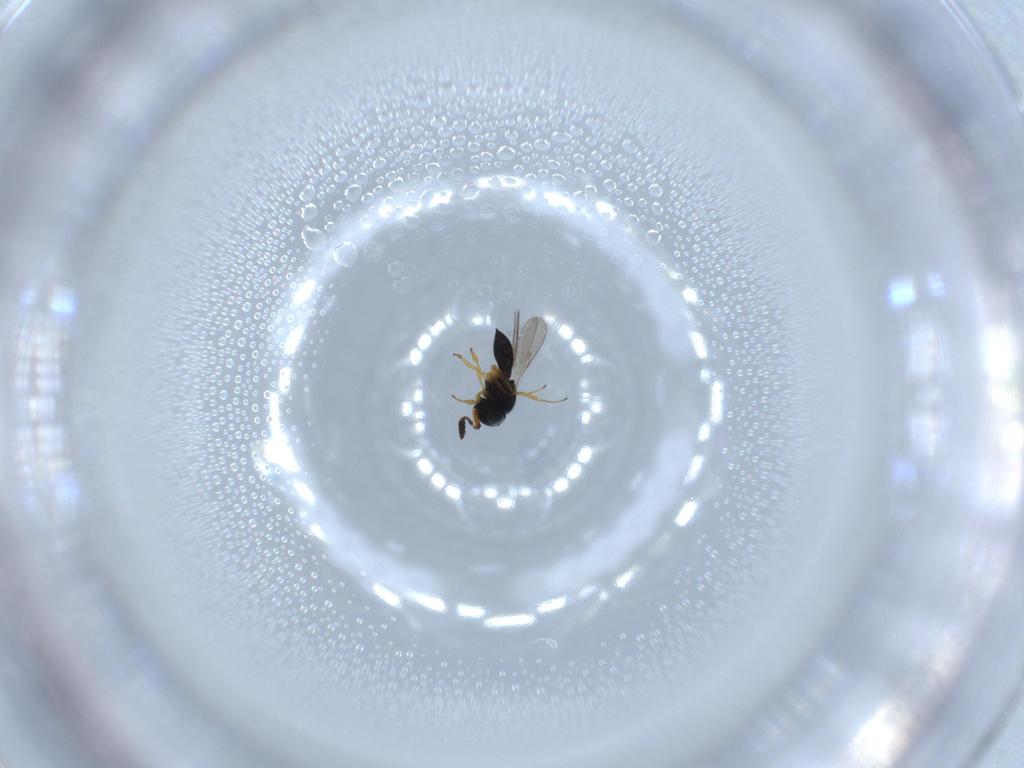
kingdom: Animalia
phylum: Arthropoda
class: Insecta
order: Hymenoptera
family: Scelionidae
